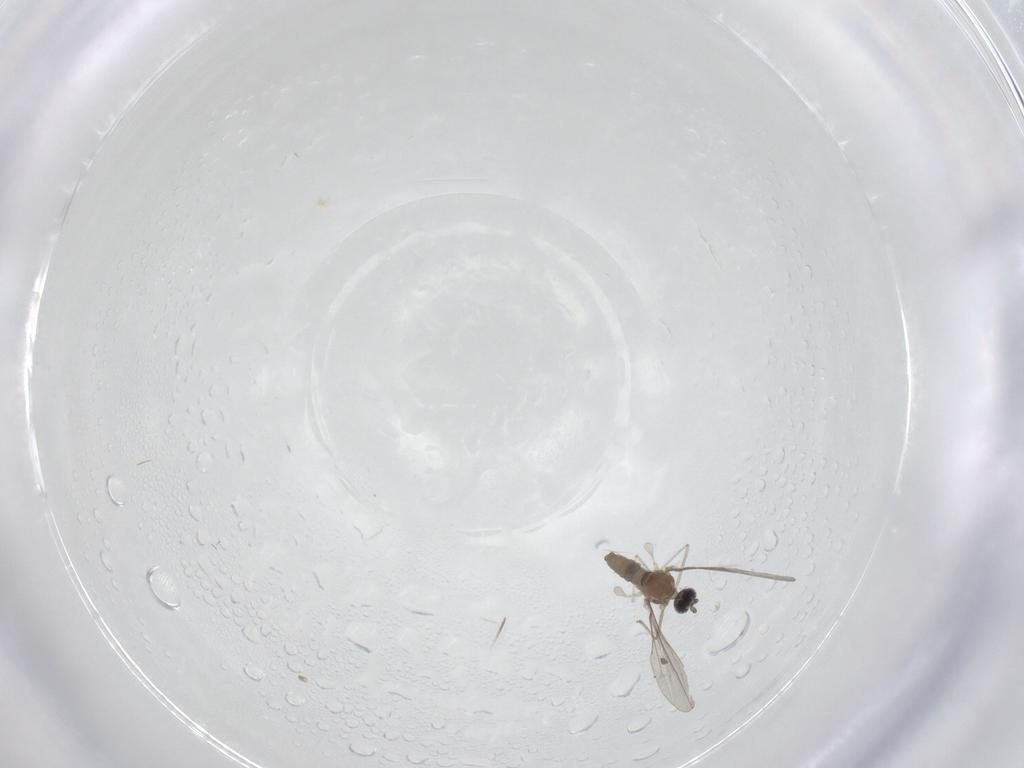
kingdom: Animalia
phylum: Arthropoda
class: Insecta
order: Diptera
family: Cecidomyiidae
